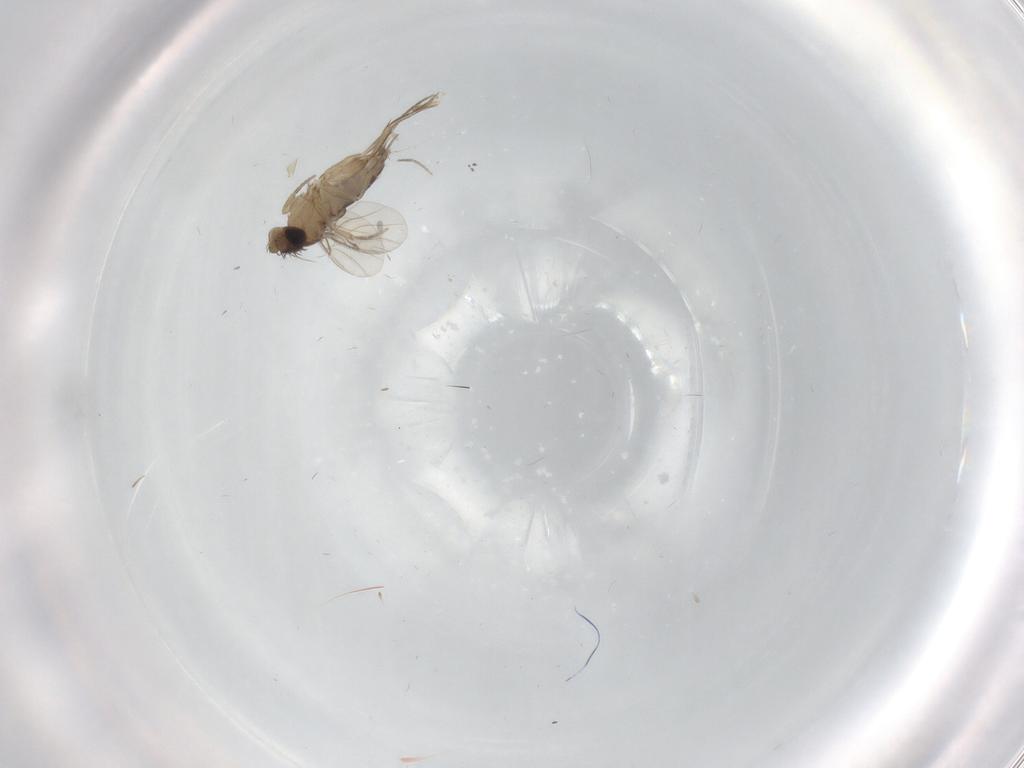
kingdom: Animalia
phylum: Arthropoda
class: Insecta
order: Diptera
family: Phoridae
